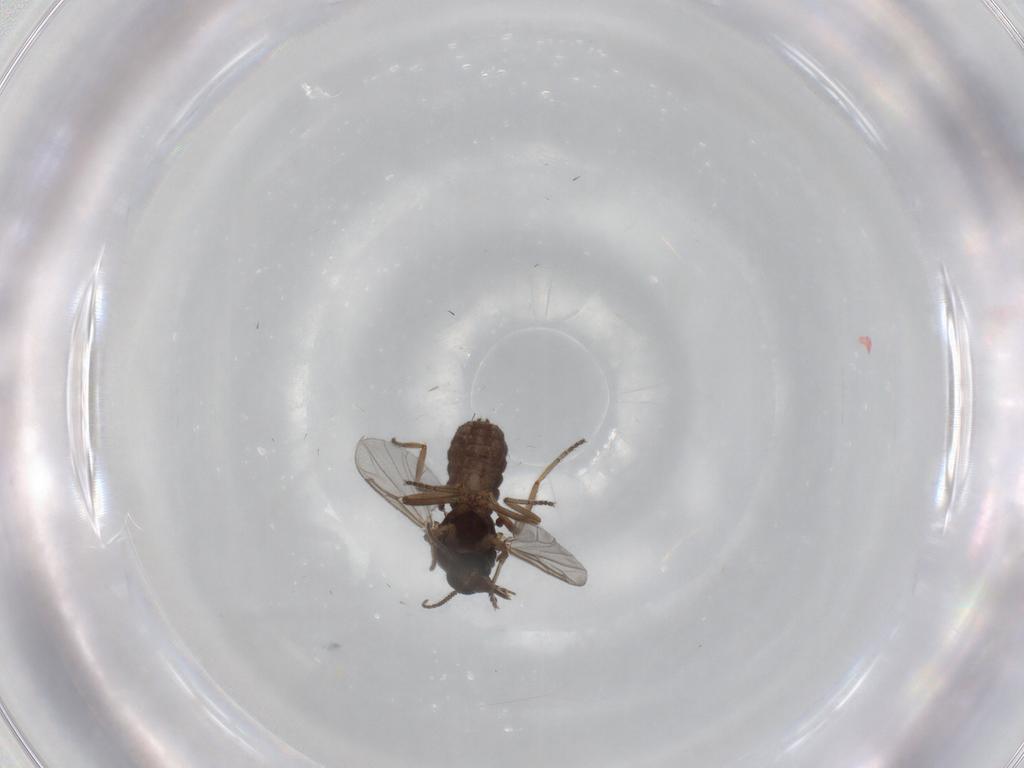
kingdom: Animalia
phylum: Arthropoda
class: Insecta
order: Diptera
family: Ceratopogonidae
